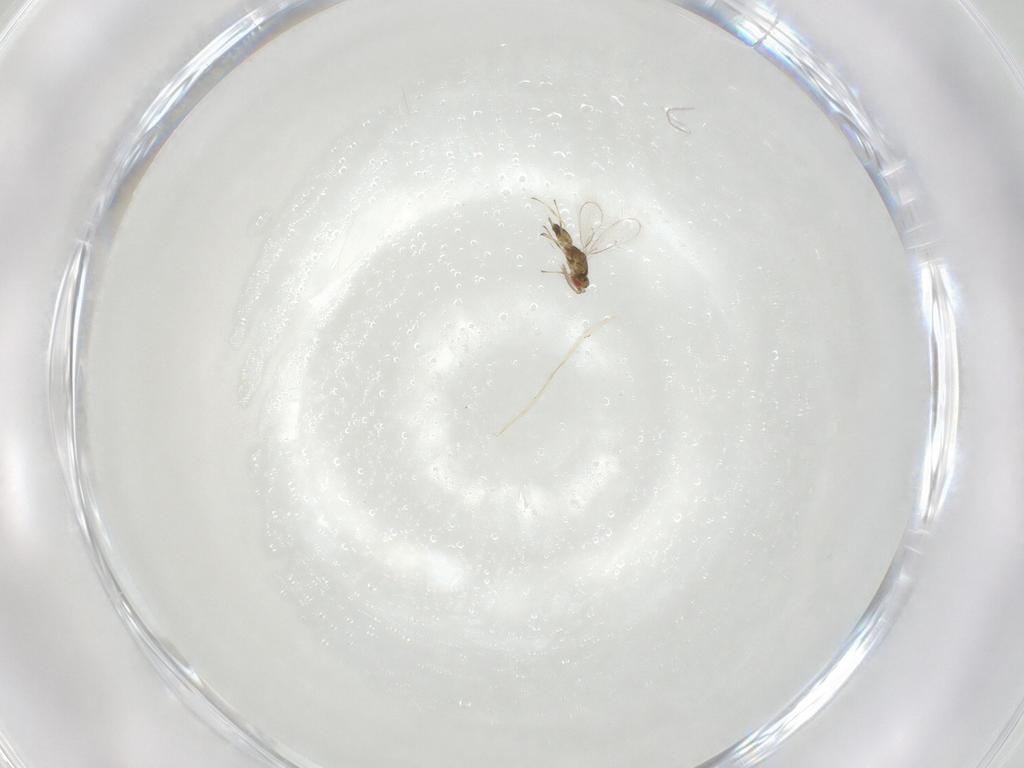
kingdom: Animalia
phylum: Arthropoda
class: Insecta
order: Hymenoptera
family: Eulophidae
